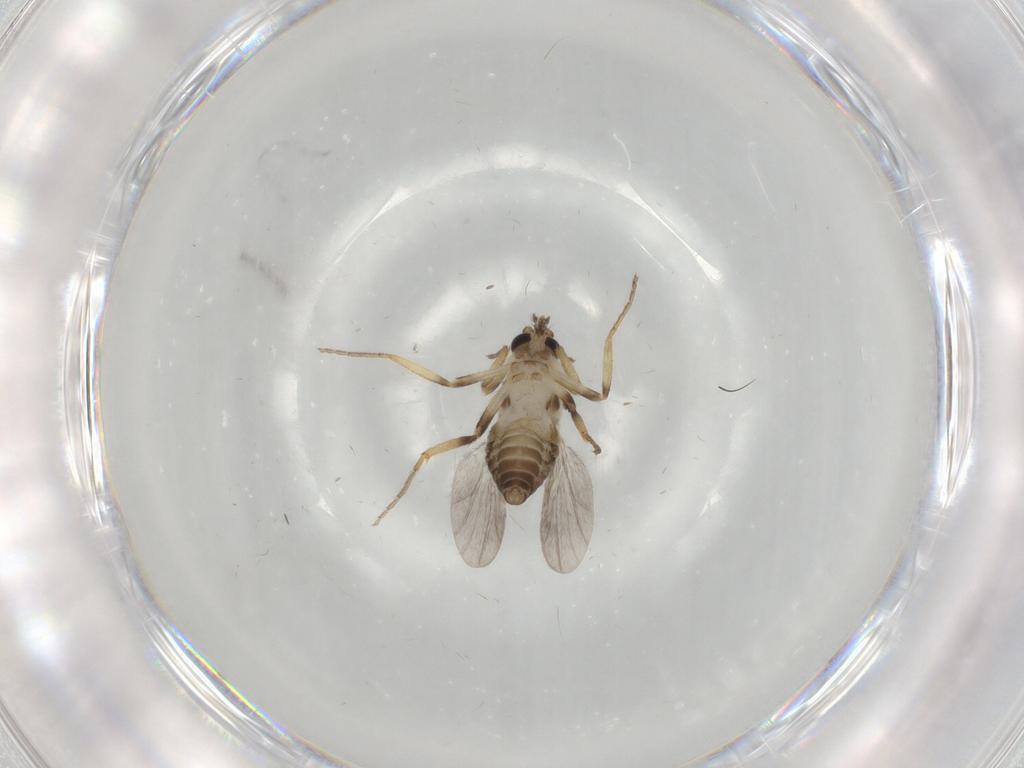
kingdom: Animalia
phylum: Arthropoda
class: Insecta
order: Diptera
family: Ceratopogonidae
